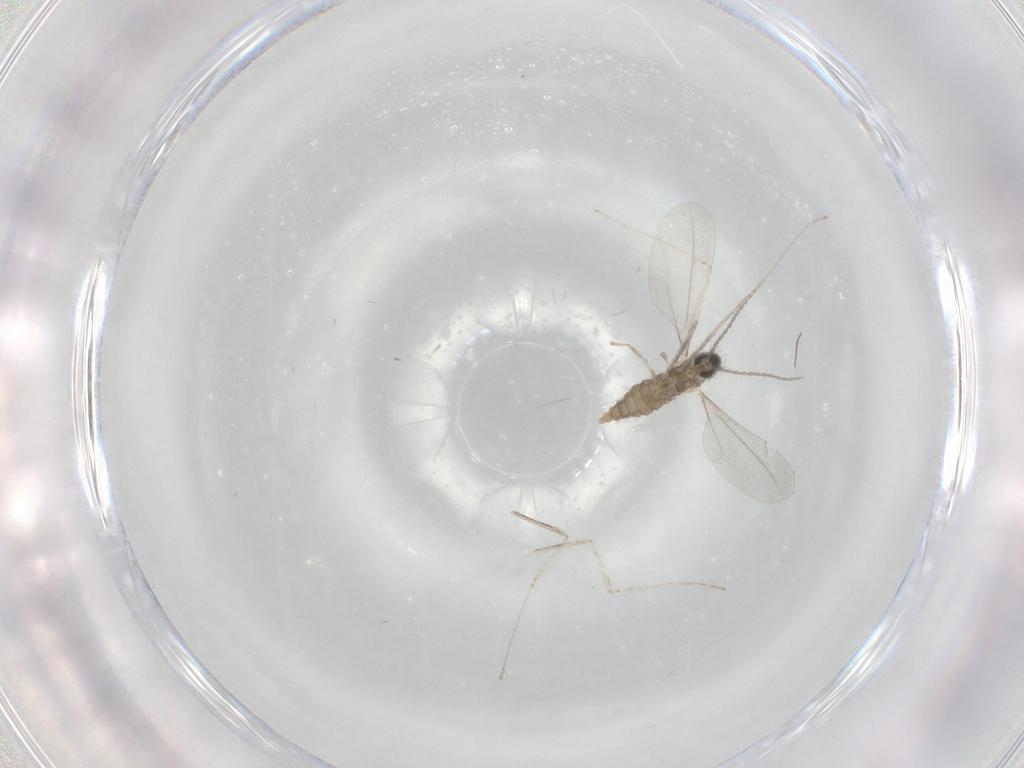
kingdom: Animalia
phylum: Arthropoda
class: Insecta
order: Diptera
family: Cecidomyiidae
